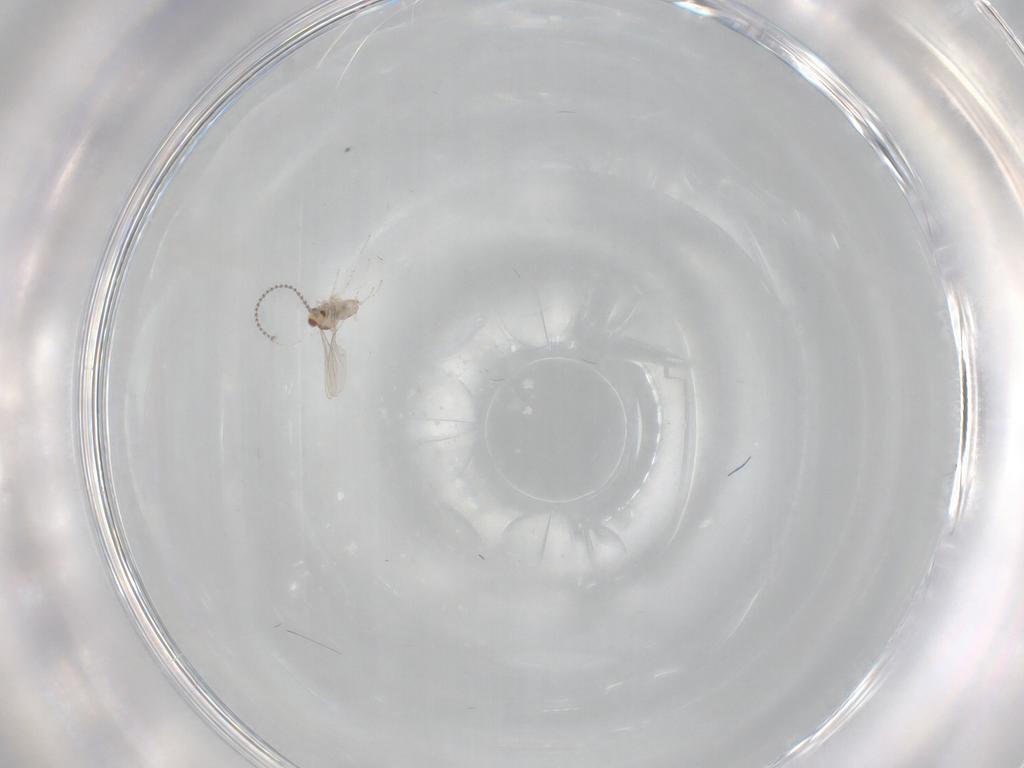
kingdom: Animalia
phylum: Arthropoda
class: Insecta
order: Diptera
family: Cecidomyiidae
